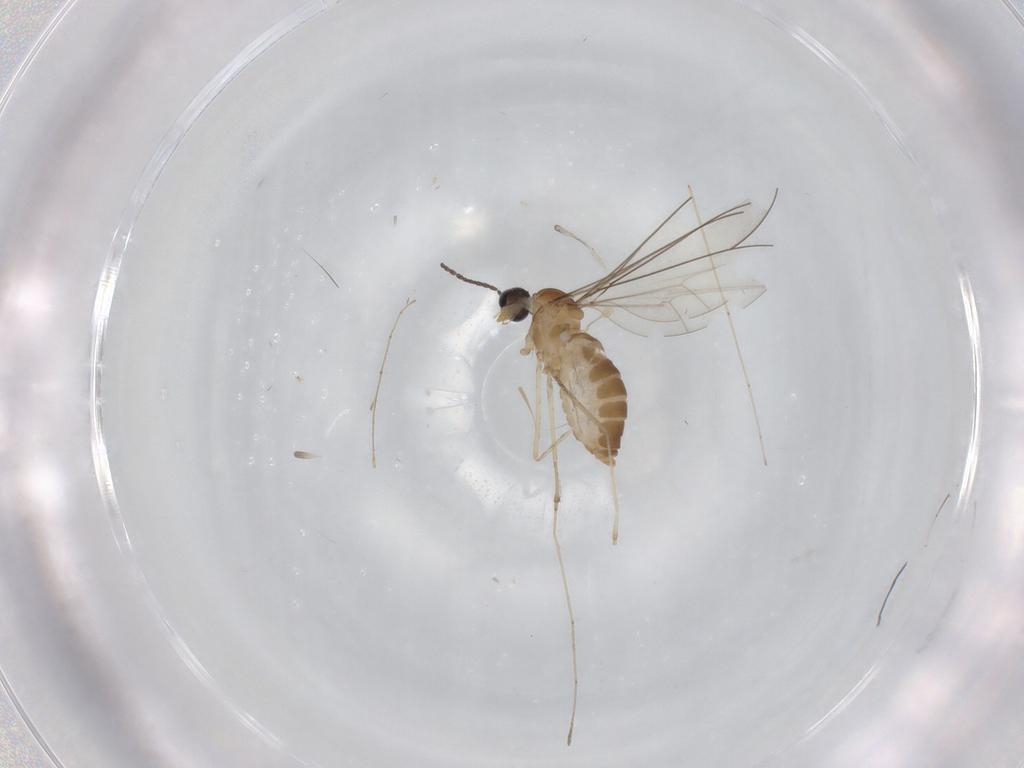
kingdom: Animalia
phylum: Arthropoda
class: Insecta
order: Diptera
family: Cecidomyiidae
